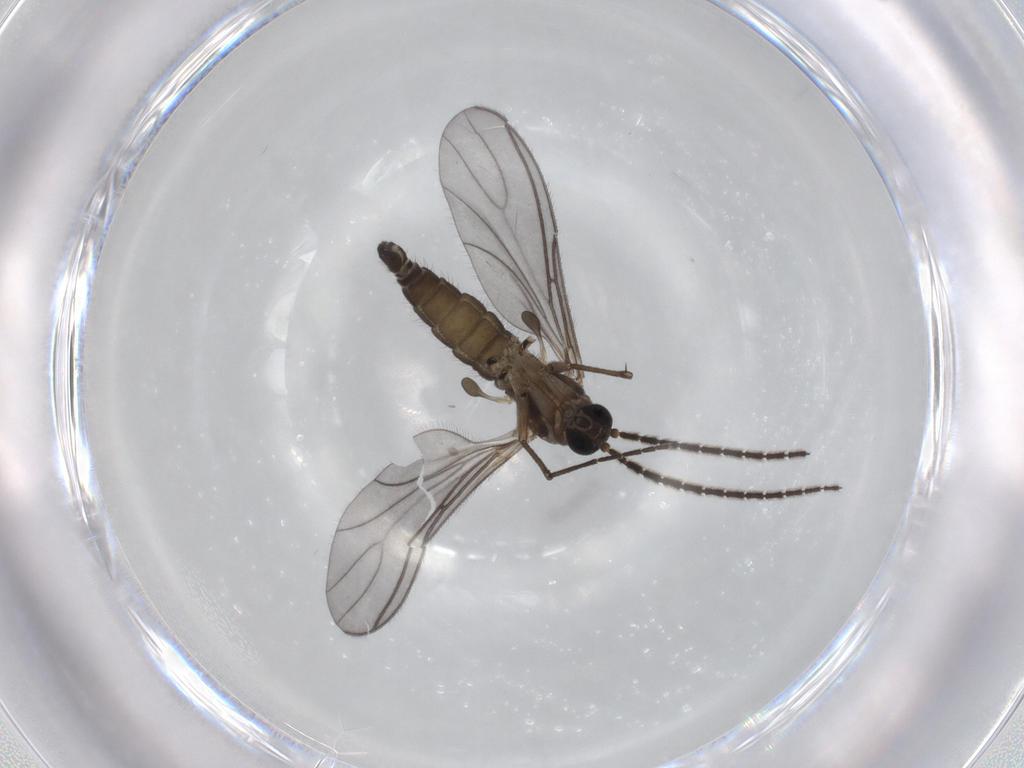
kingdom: Animalia
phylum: Arthropoda
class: Insecta
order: Diptera
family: Sciaridae
